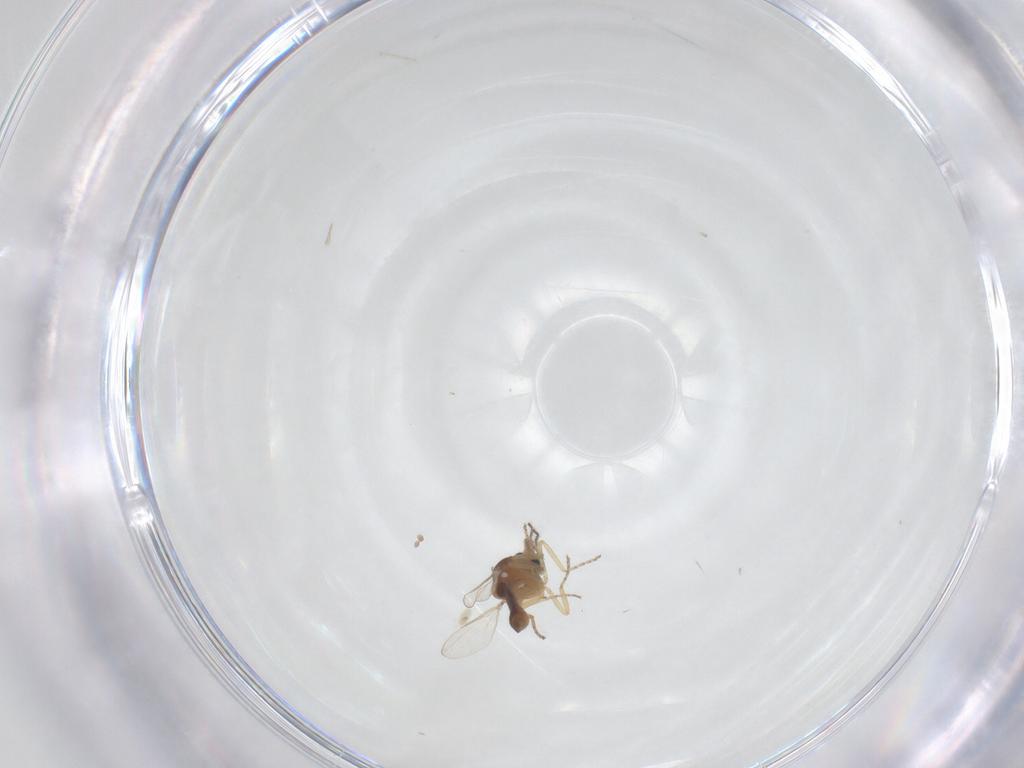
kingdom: Animalia
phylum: Arthropoda
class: Insecta
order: Diptera
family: Ceratopogonidae
